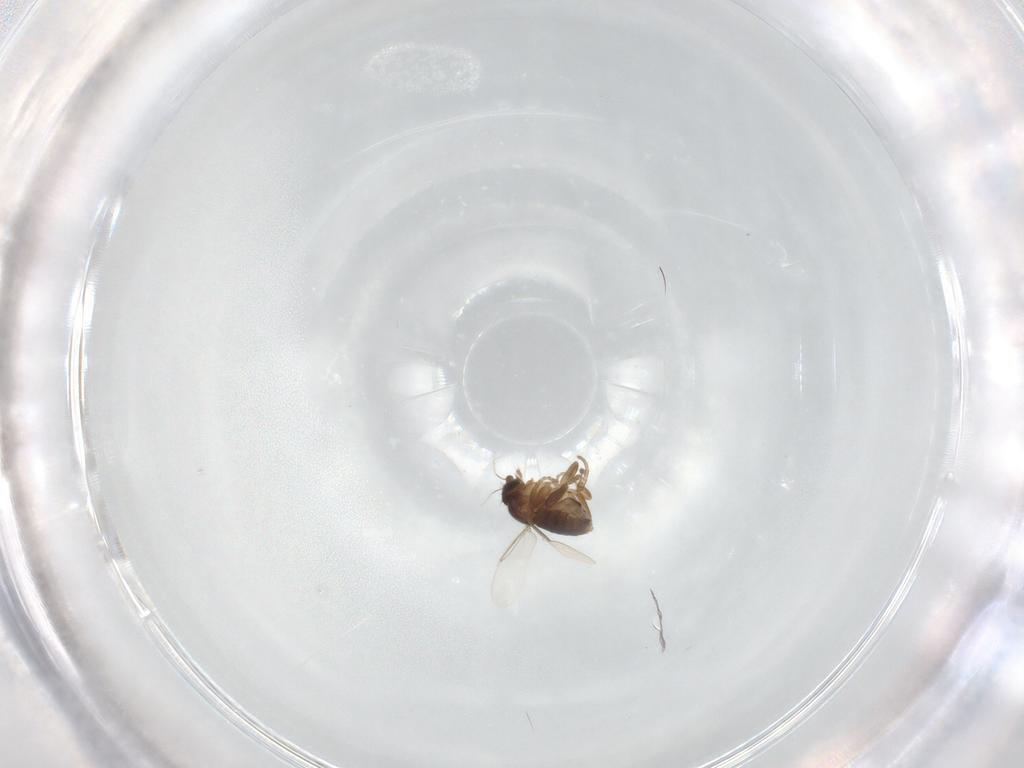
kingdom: Animalia
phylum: Arthropoda
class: Insecta
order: Diptera
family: Phoridae
